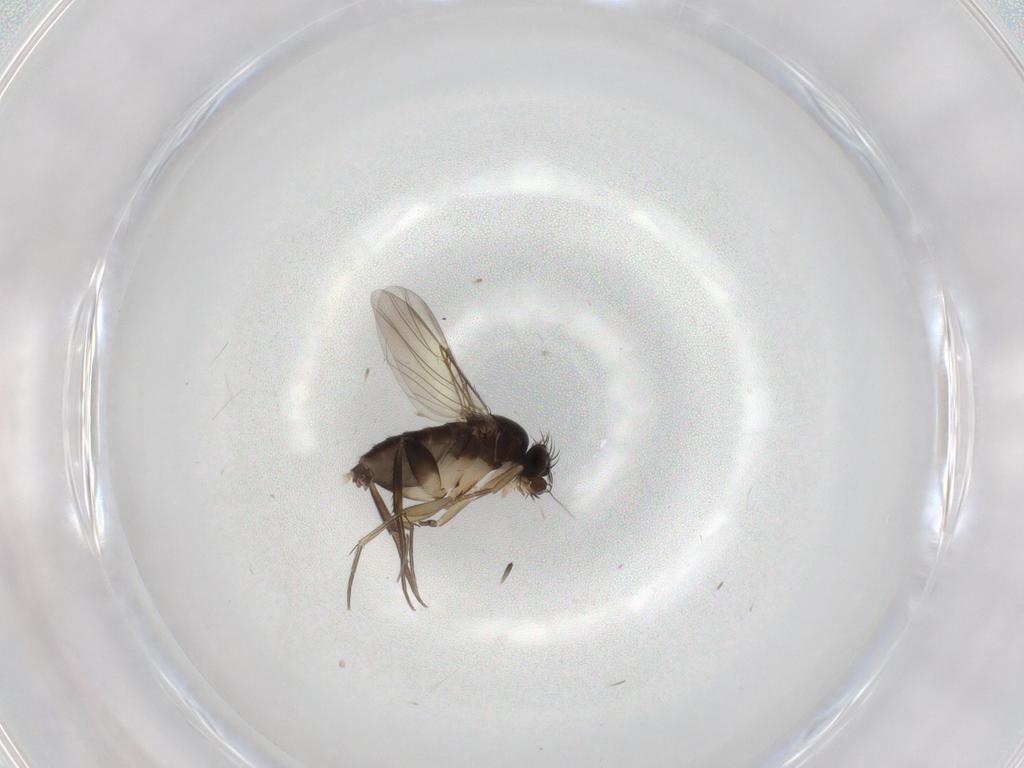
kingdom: Animalia
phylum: Arthropoda
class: Insecta
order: Diptera
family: Phoridae
